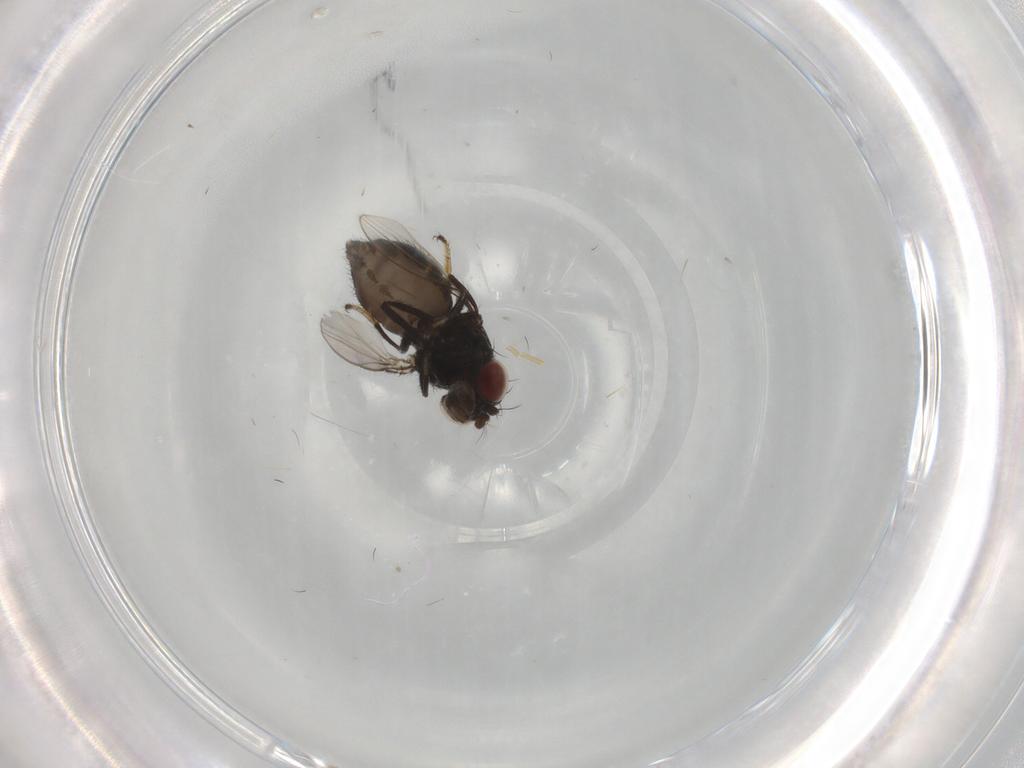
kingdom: Animalia
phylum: Arthropoda
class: Insecta
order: Diptera
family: Ephydridae
